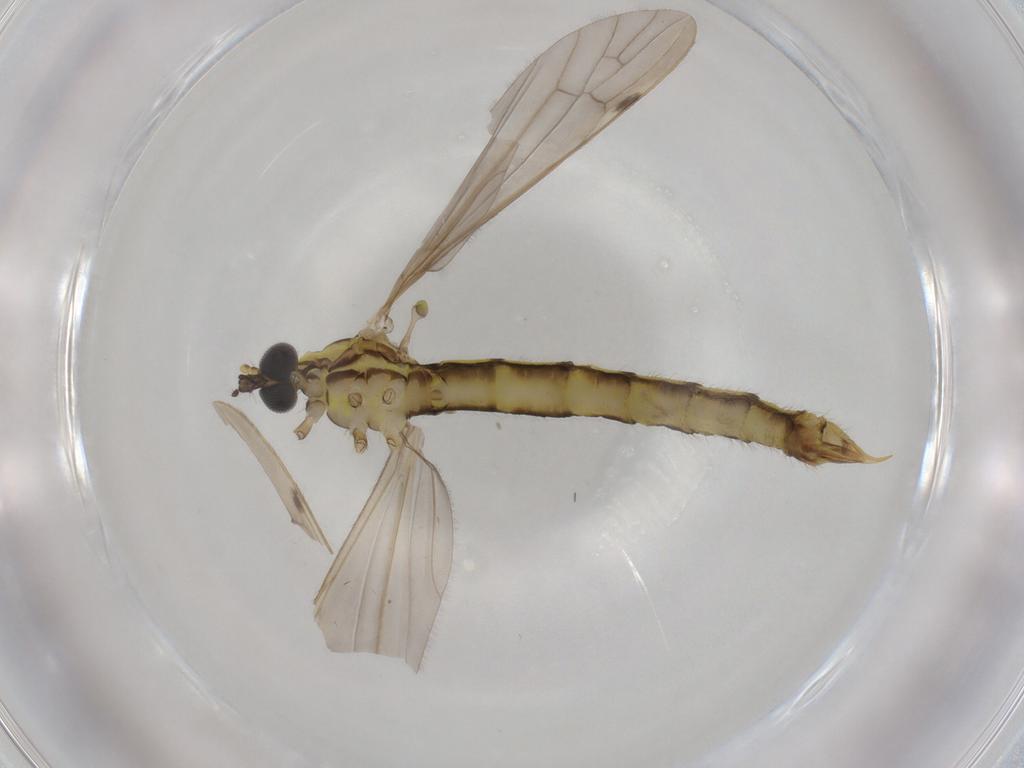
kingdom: Animalia
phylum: Arthropoda
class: Insecta
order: Diptera
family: Limoniidae
